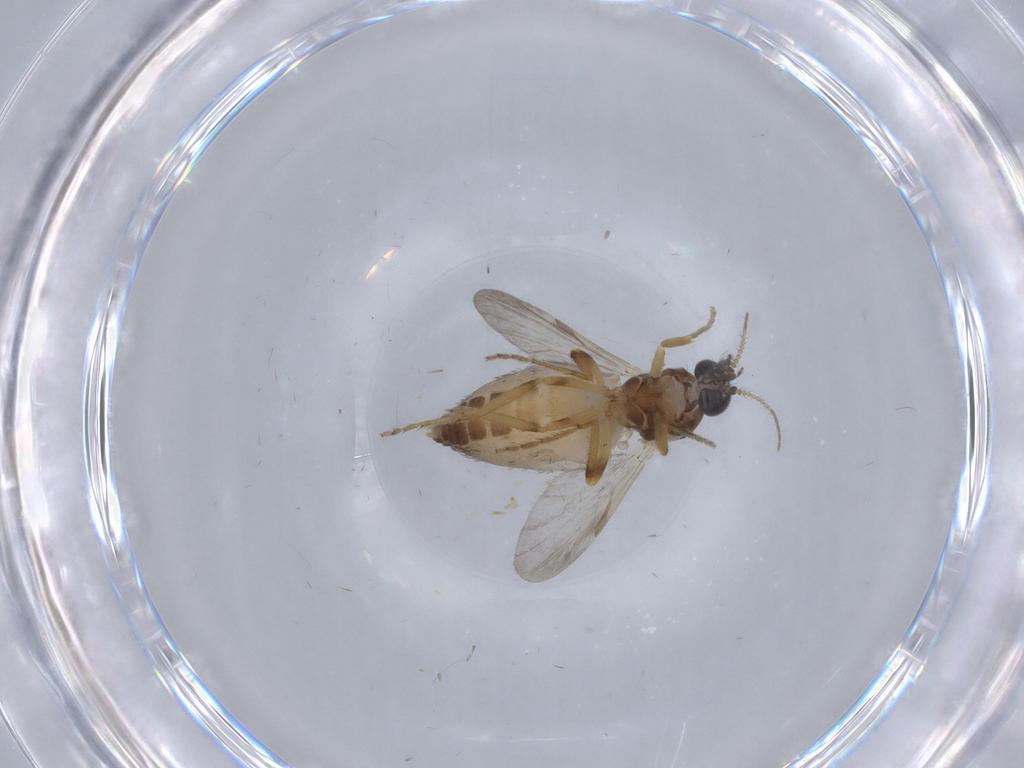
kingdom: Animalia
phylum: Arthropoda
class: Insecta
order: Diptera
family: Ceratopogonidae
